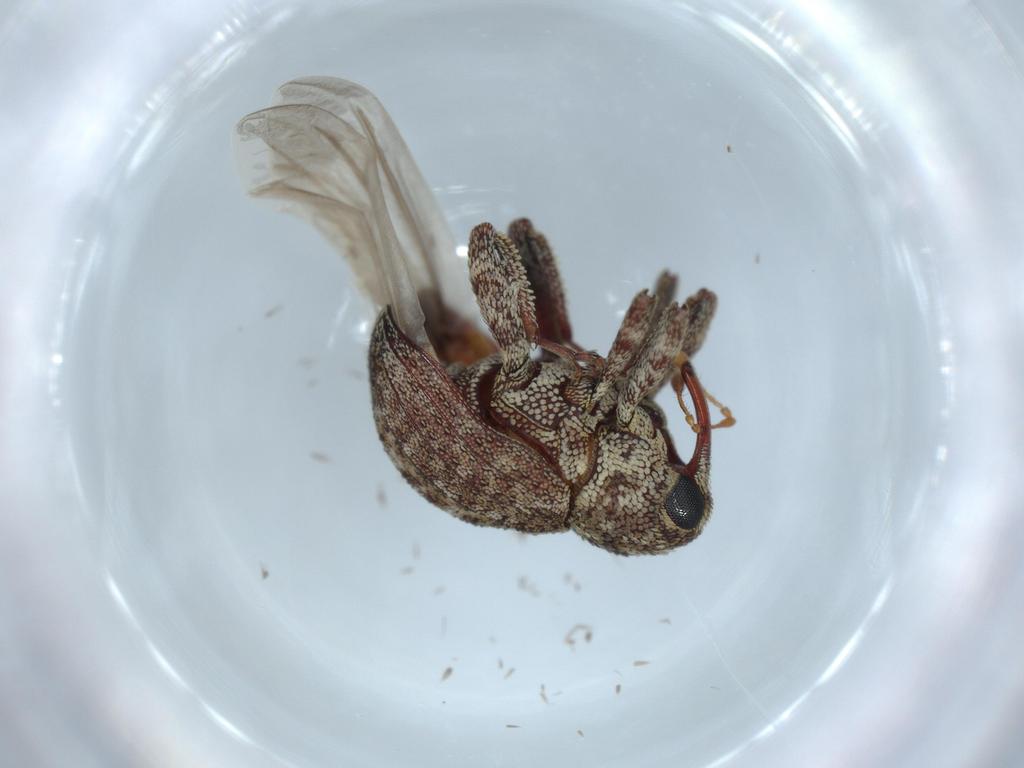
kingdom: Animalia
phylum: Arthropoda
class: Insecta
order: Coleoptera
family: Curculionidae
